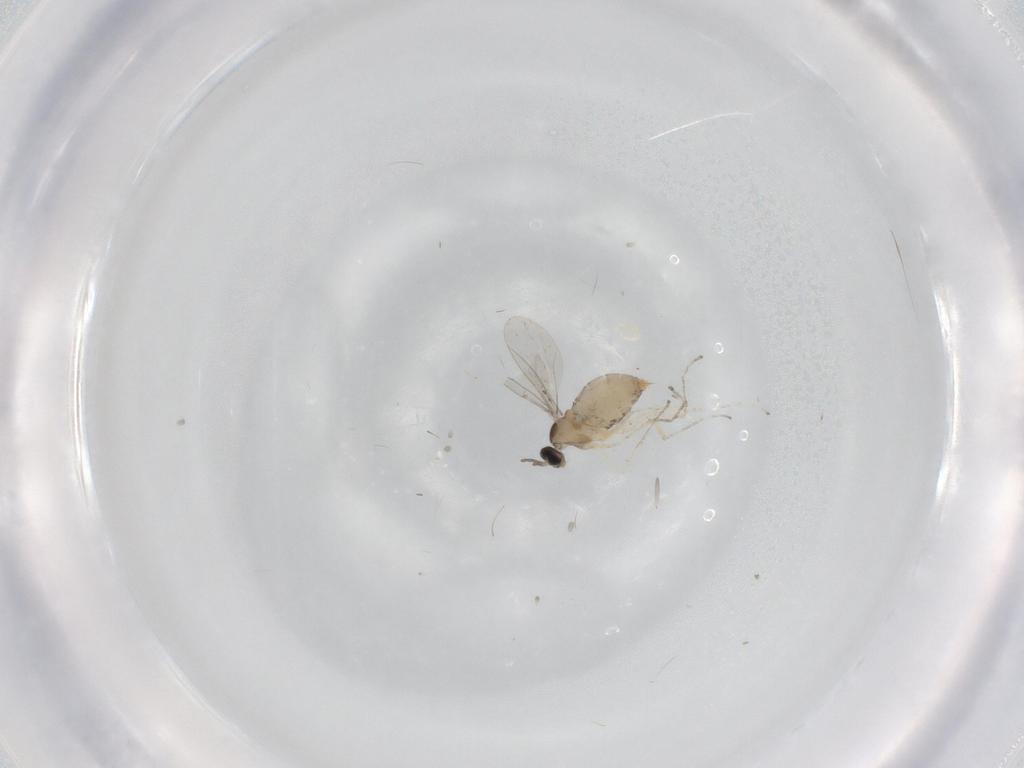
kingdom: Animalia
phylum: Arthropoda
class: Insecta
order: Diptera
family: Cecidomyiidae
